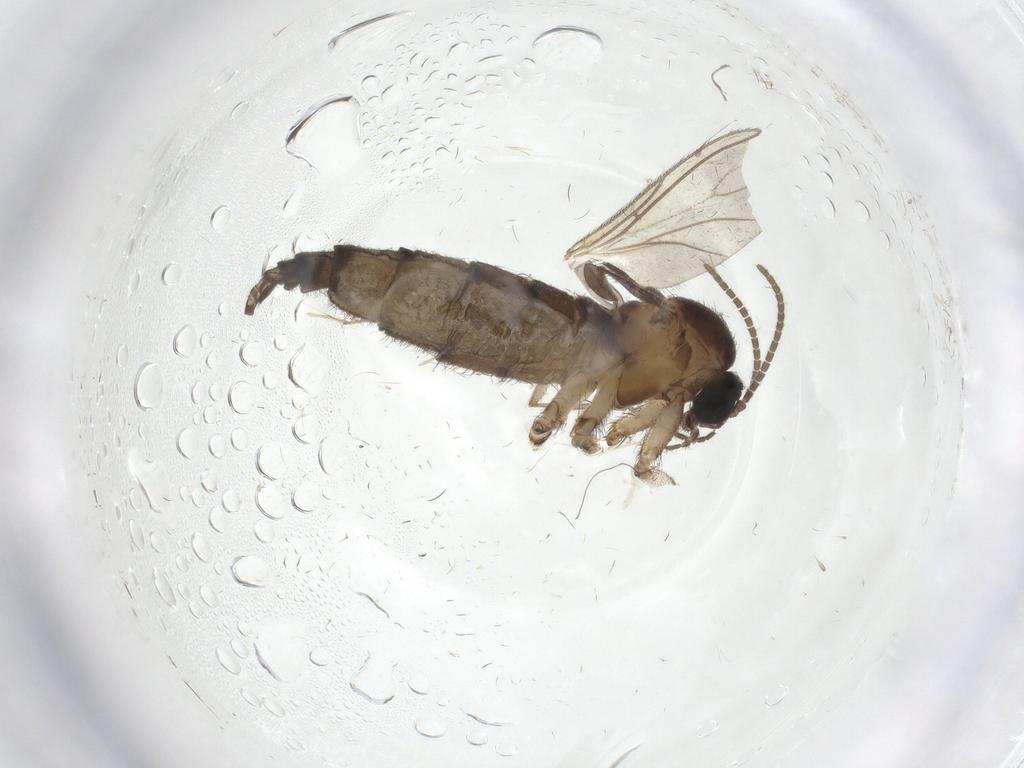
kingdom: Animalia
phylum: Arthropoda
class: Insecta
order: Diptera
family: Sciaridae
